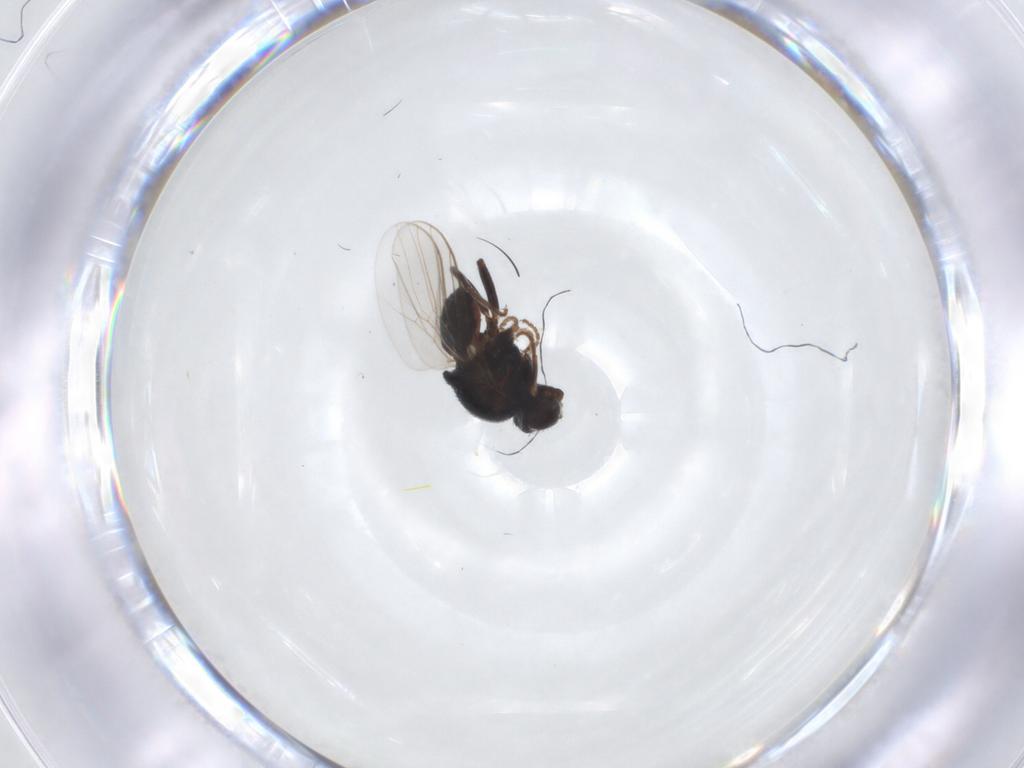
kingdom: Animalia
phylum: Arthropoda
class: Insecta
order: Diptera
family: Chloropidae
